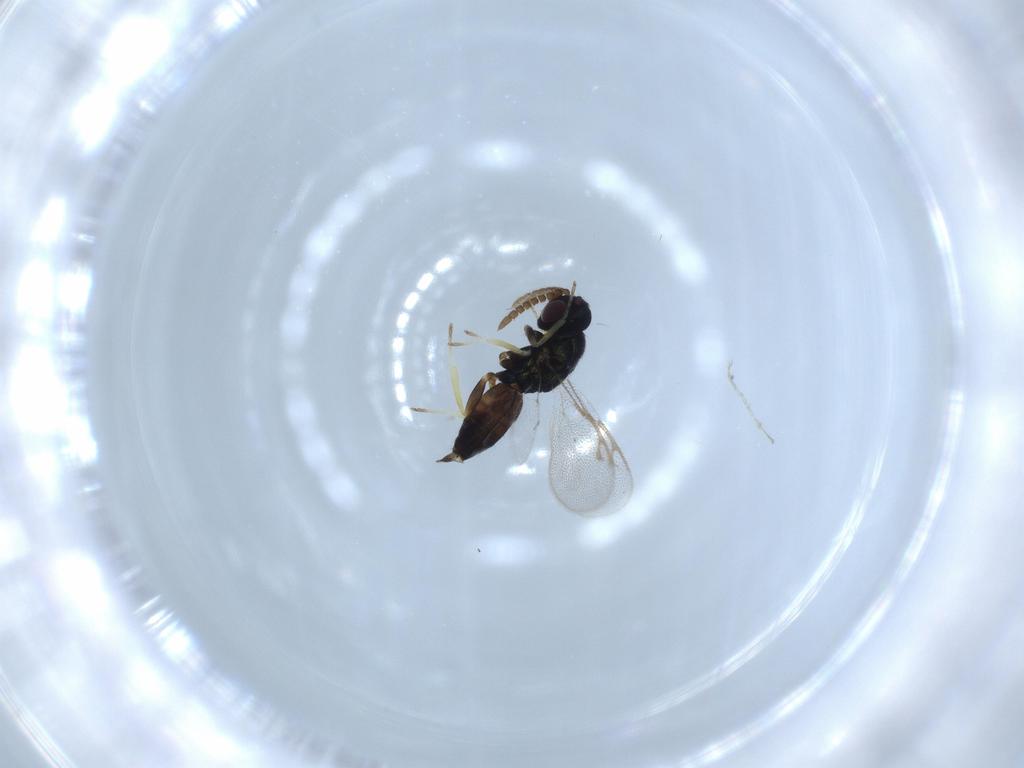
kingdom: Animalia
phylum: Arthropoda
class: Insecta
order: Hymenoptera
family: Pirenidae
